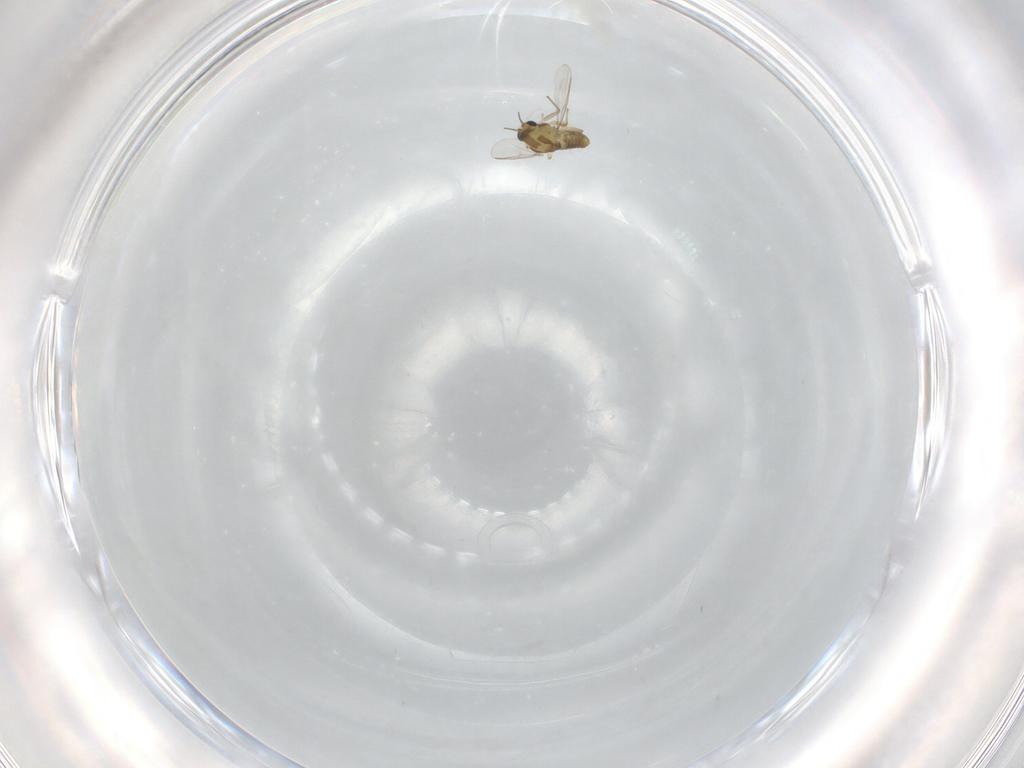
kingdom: Animalia
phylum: Arthropoda
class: Insecta
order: Diptera
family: Chironomidae
